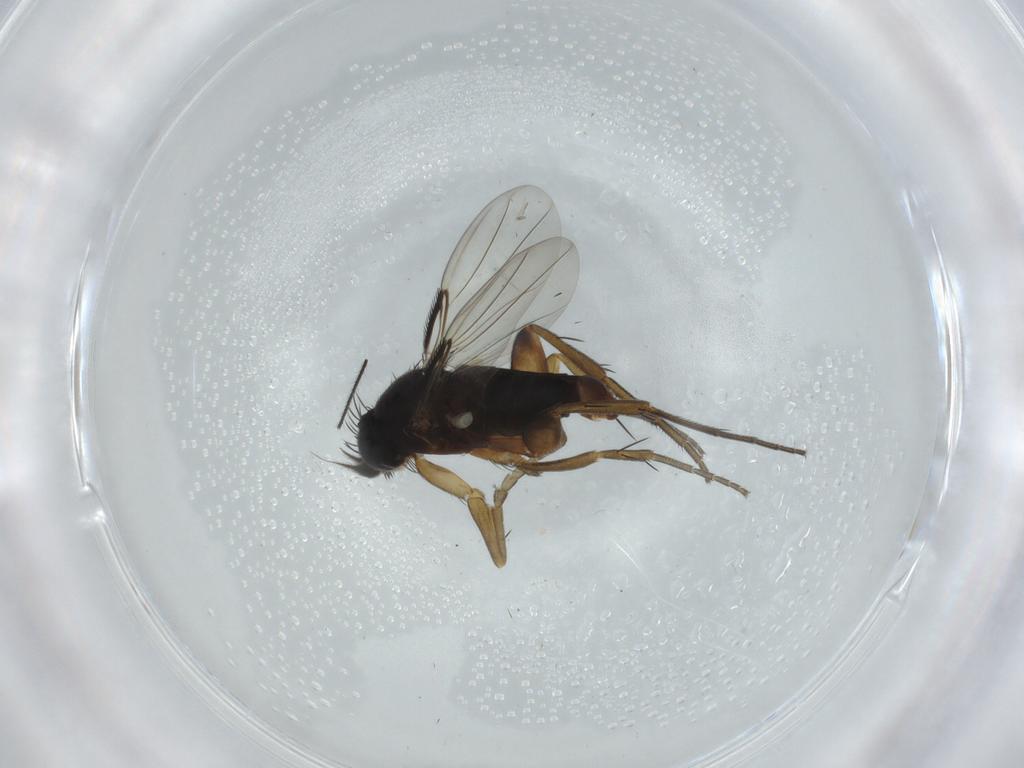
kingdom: Animalia
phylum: Arthropoda
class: Insecta
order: Diptera
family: Phoridae
